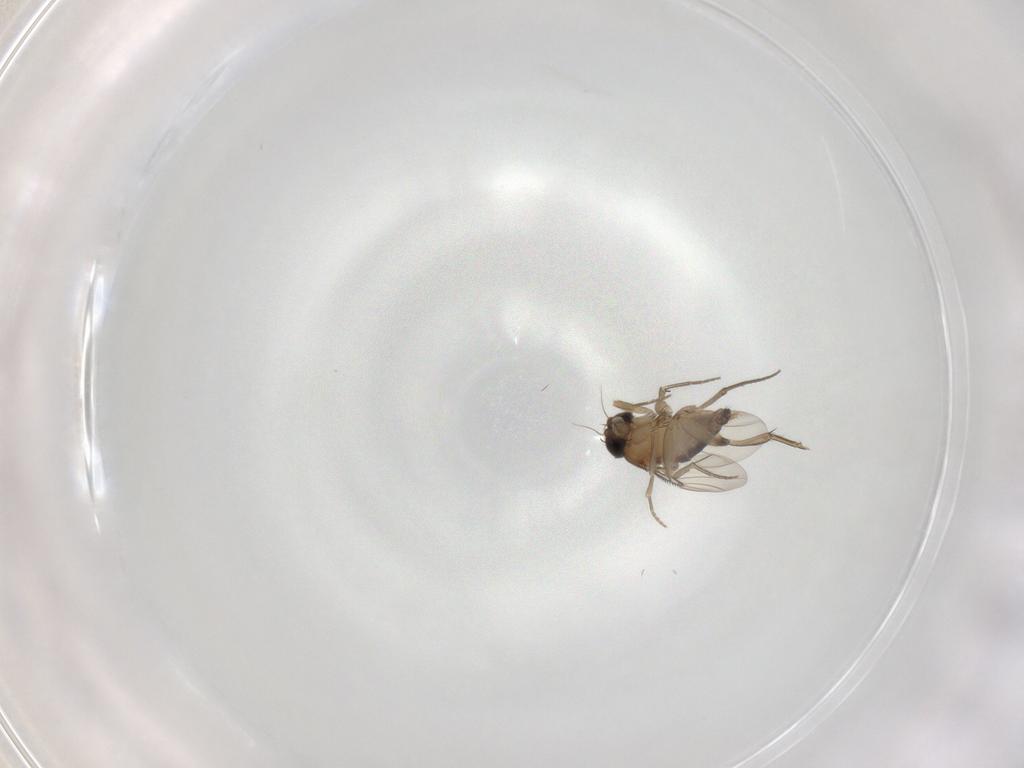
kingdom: Animalia
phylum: Arthropoda
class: Insecta
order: Diptera
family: Phoridae
